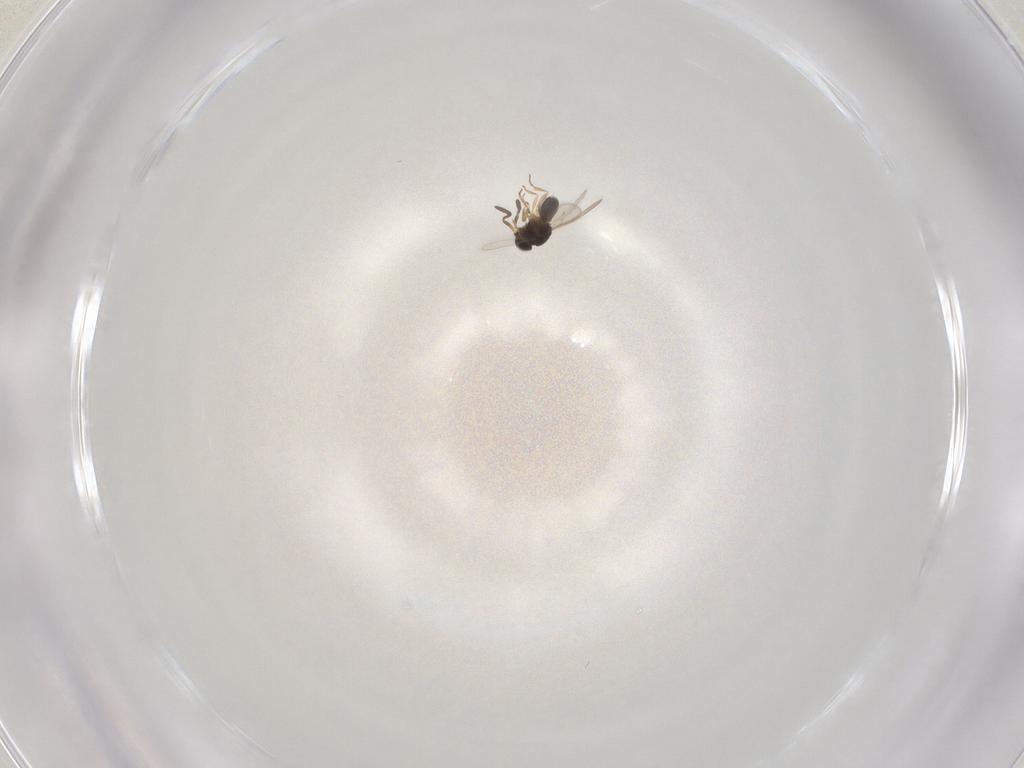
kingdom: Animalia
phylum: Arthropoda
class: Insecta
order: Hymenoptera
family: Scelionidae
